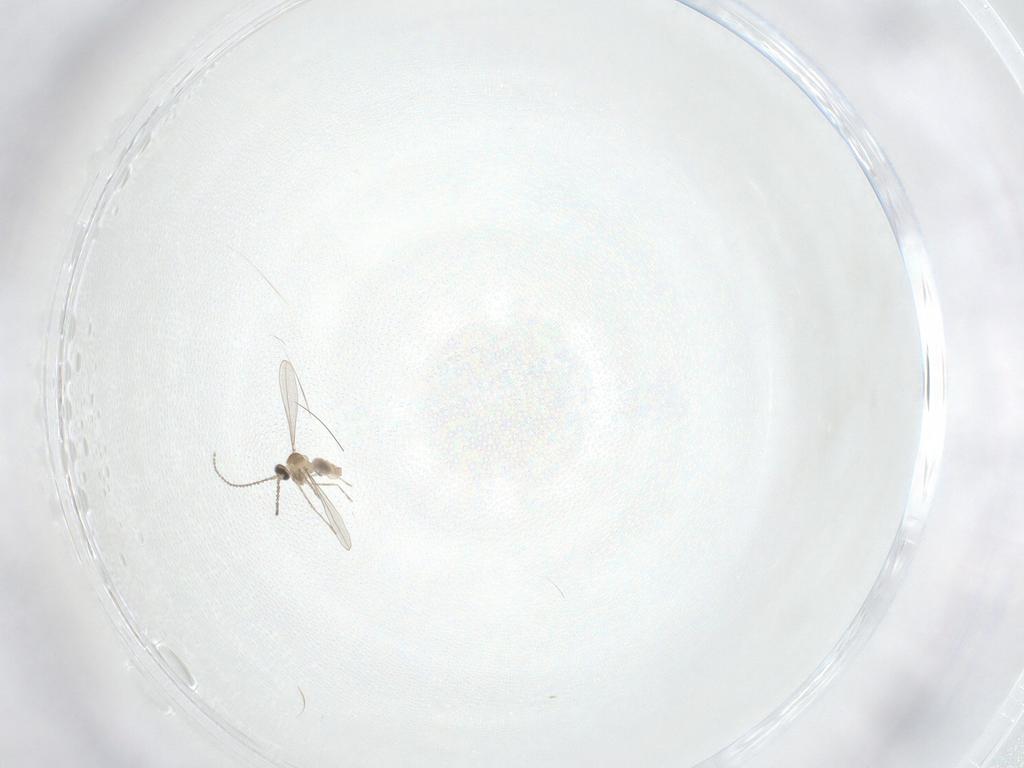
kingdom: Animalia
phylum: Arthropoda
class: Insecta
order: Diptera
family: Cecidomyiidae
